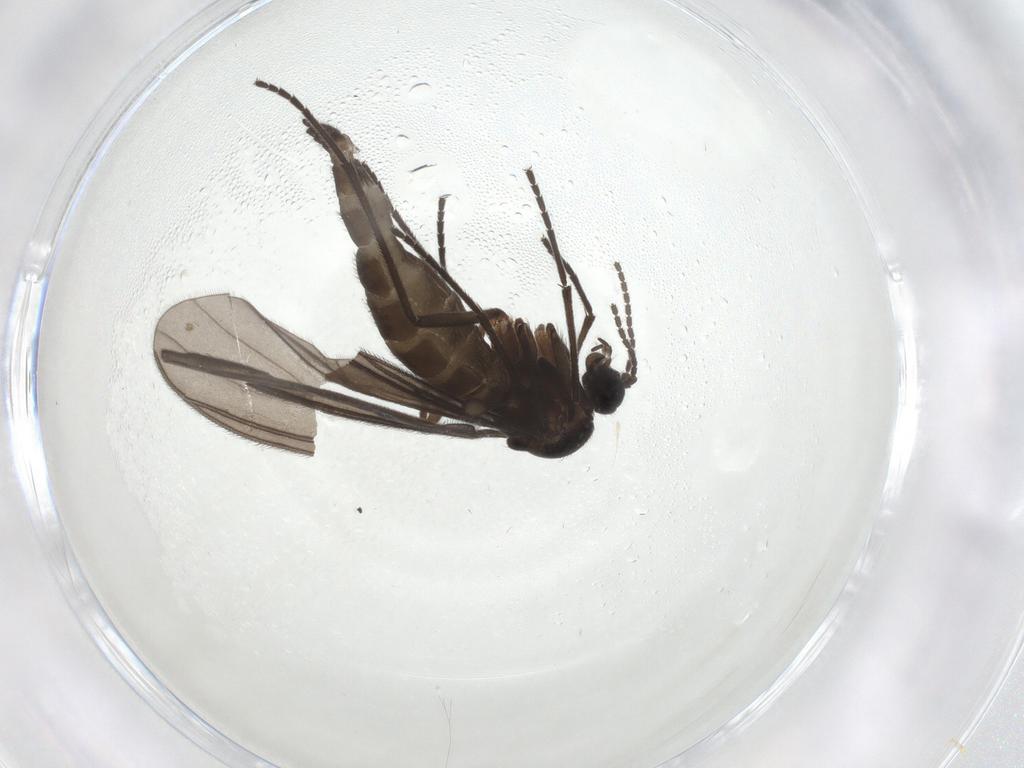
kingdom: Animalia
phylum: Arthropoda
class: Insecta
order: Diptera
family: Sciaridae
